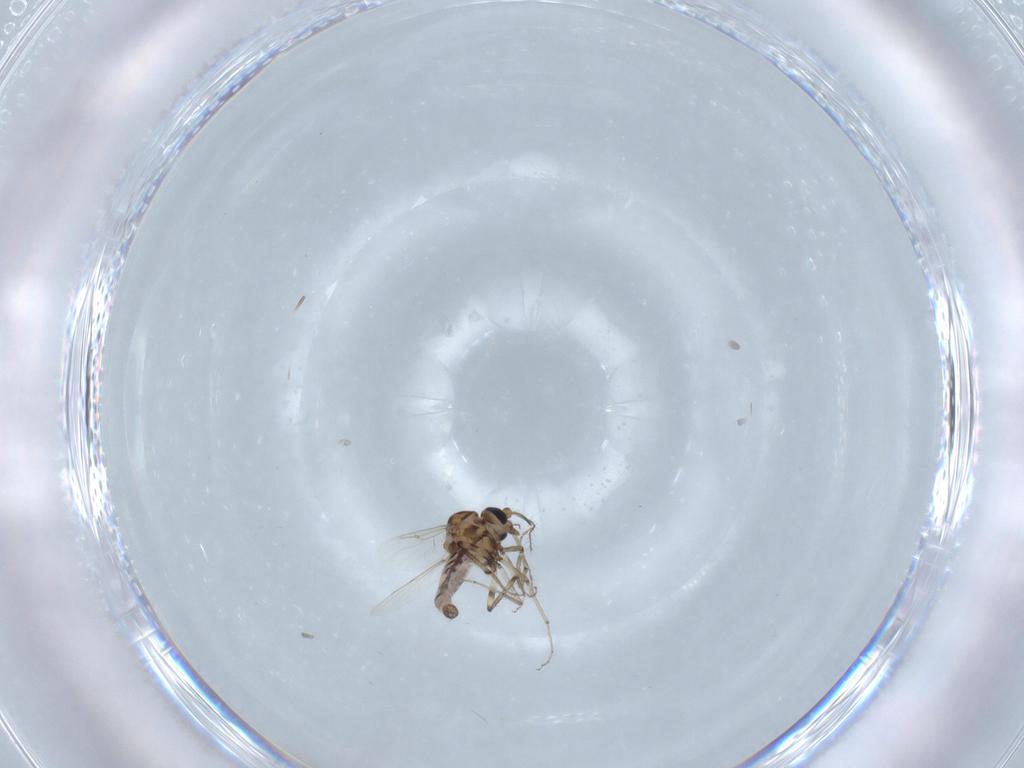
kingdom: Animalia
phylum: Arthropoda
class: Insecta
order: Diptera
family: Ceratopogonidae
